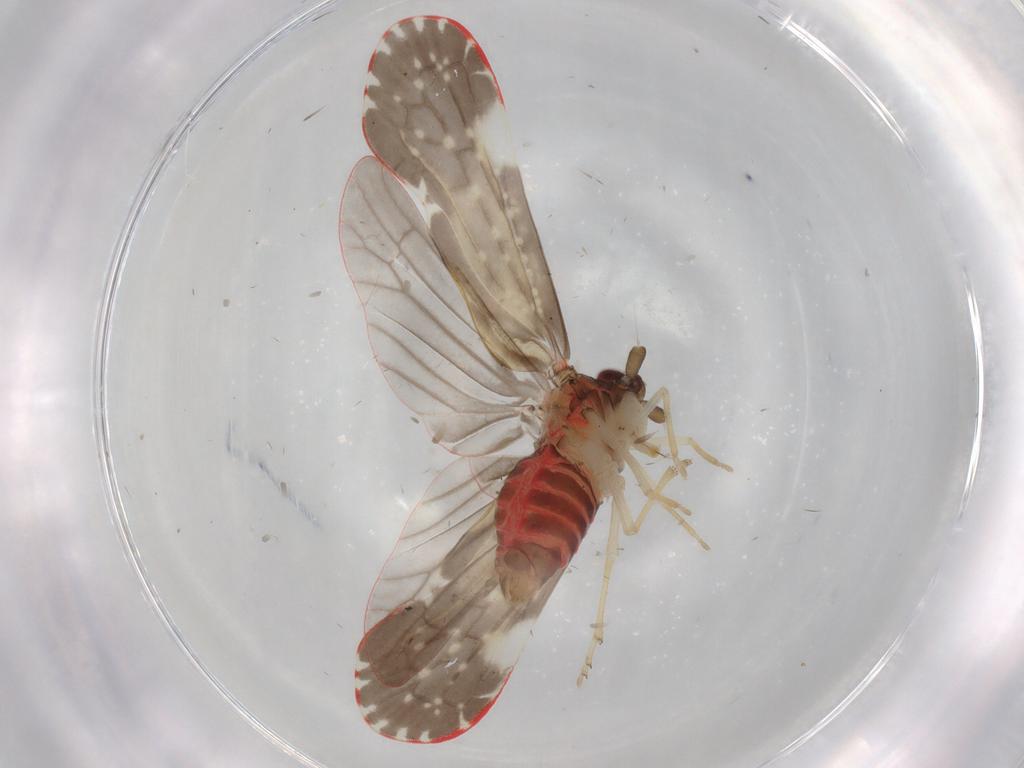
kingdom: Animalia
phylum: Arthropoda
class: Insecta
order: Hemiptera
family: Derbidae
